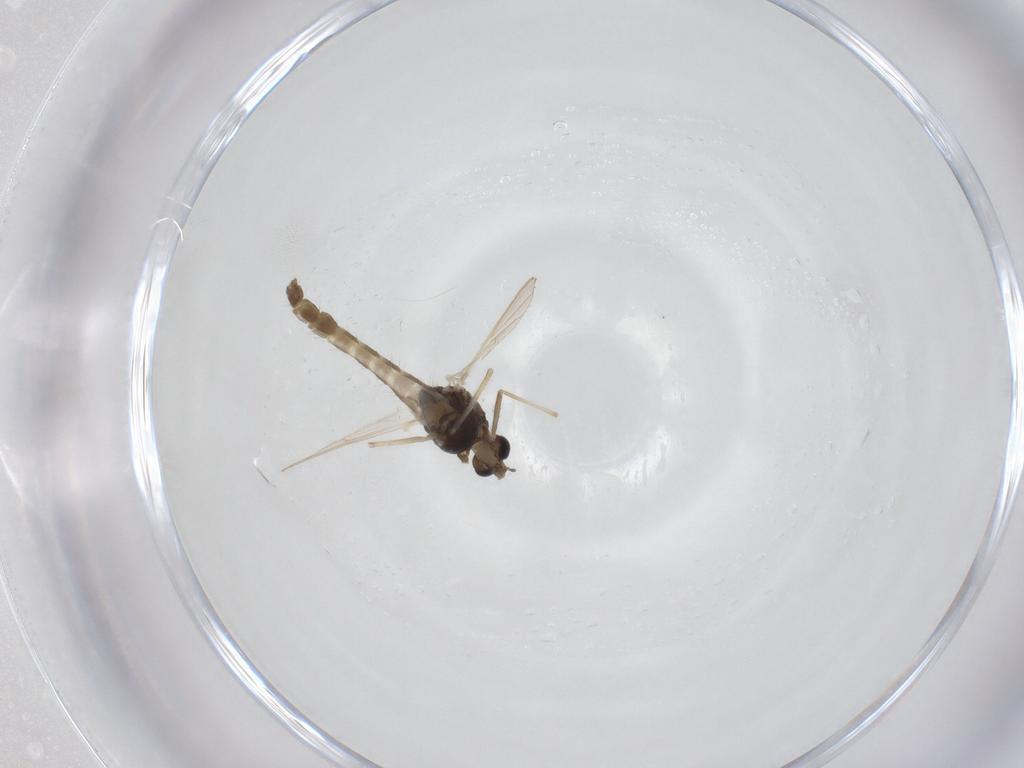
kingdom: Animalia
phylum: Arthropoda
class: Insecta
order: Diptera
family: Chironomidae
